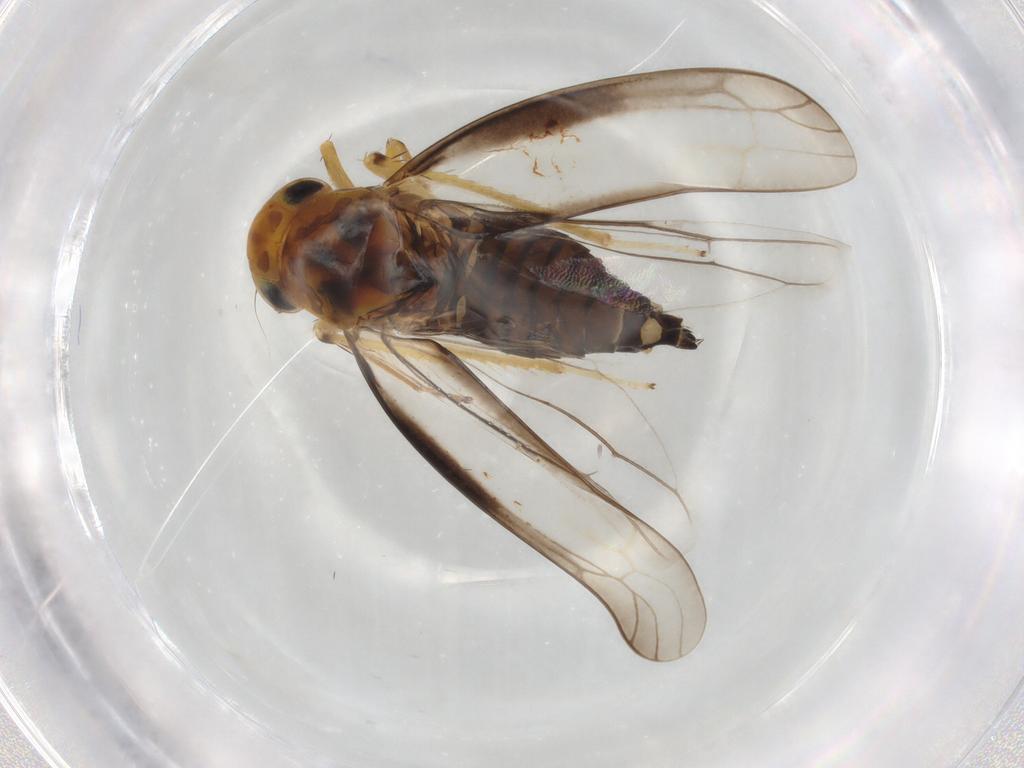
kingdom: Animalia
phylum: Arthropoda
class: Insecta
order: Hemiptera
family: Cicadellidae
